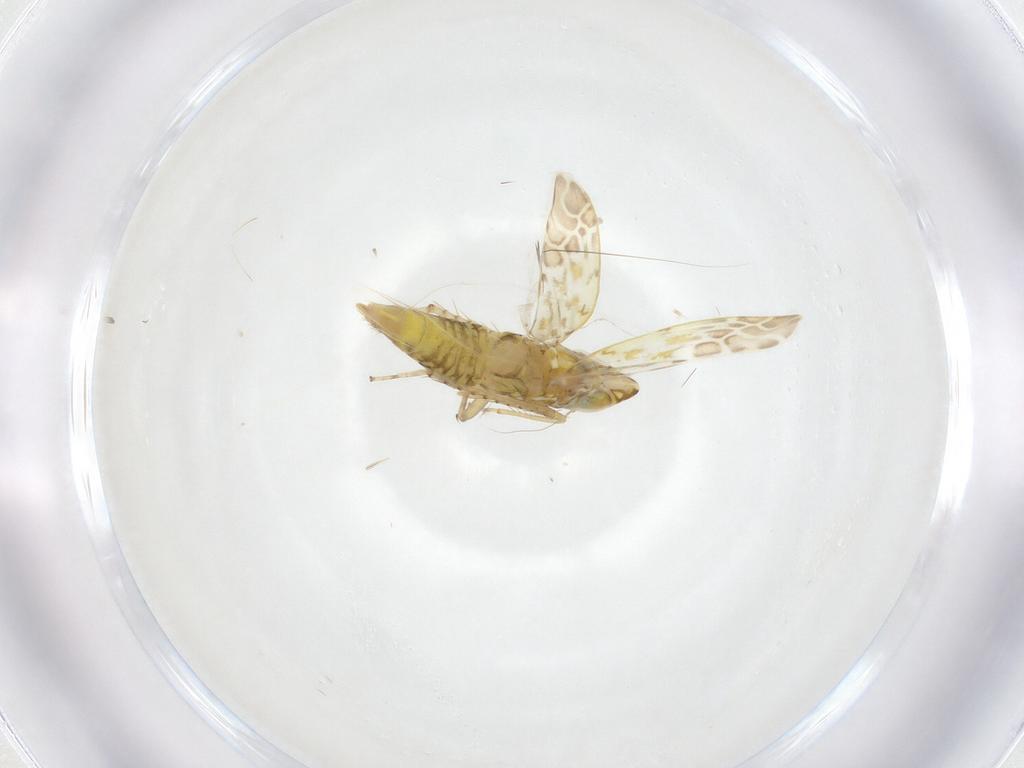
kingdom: Animalia
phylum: Arthropoda
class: Insecta
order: Hemiptera
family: Cicadellidae
